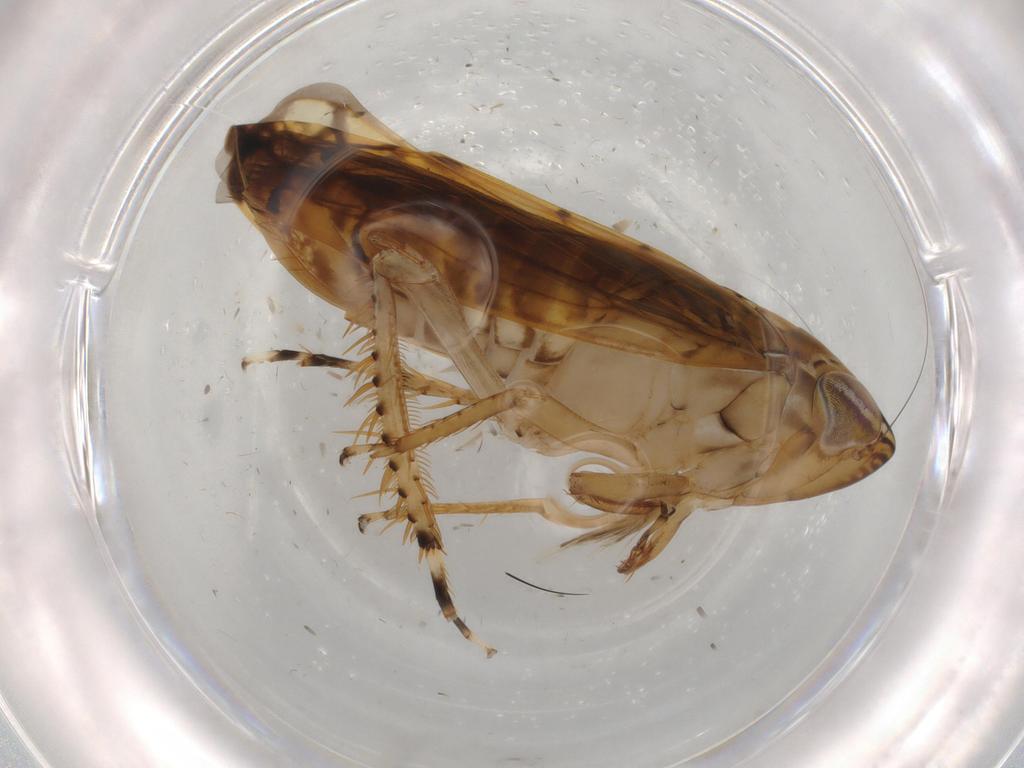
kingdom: Animalia
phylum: Arthropoda
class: Insecta
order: Hemiptera
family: Cicadellidae
